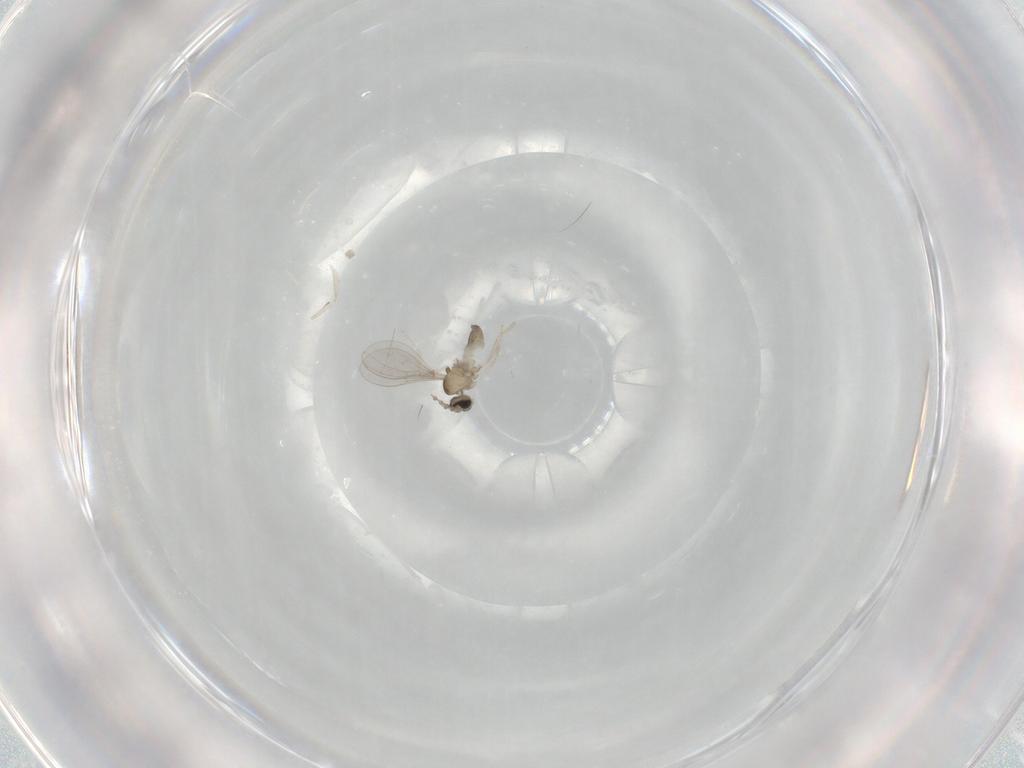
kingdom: Animalia
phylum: Arthropoda
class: Insecta
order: Diptera
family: Cecidomyiidae
